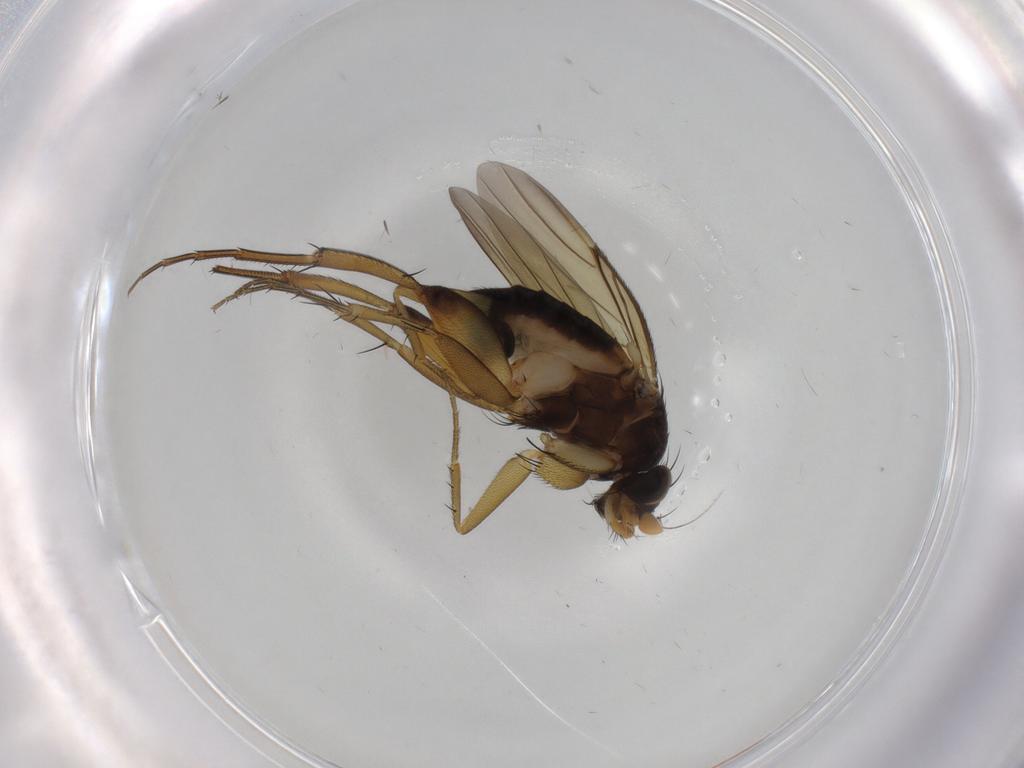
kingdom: Animalia
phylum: Arthropoda
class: Insecta
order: Diptera
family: Phoridae
